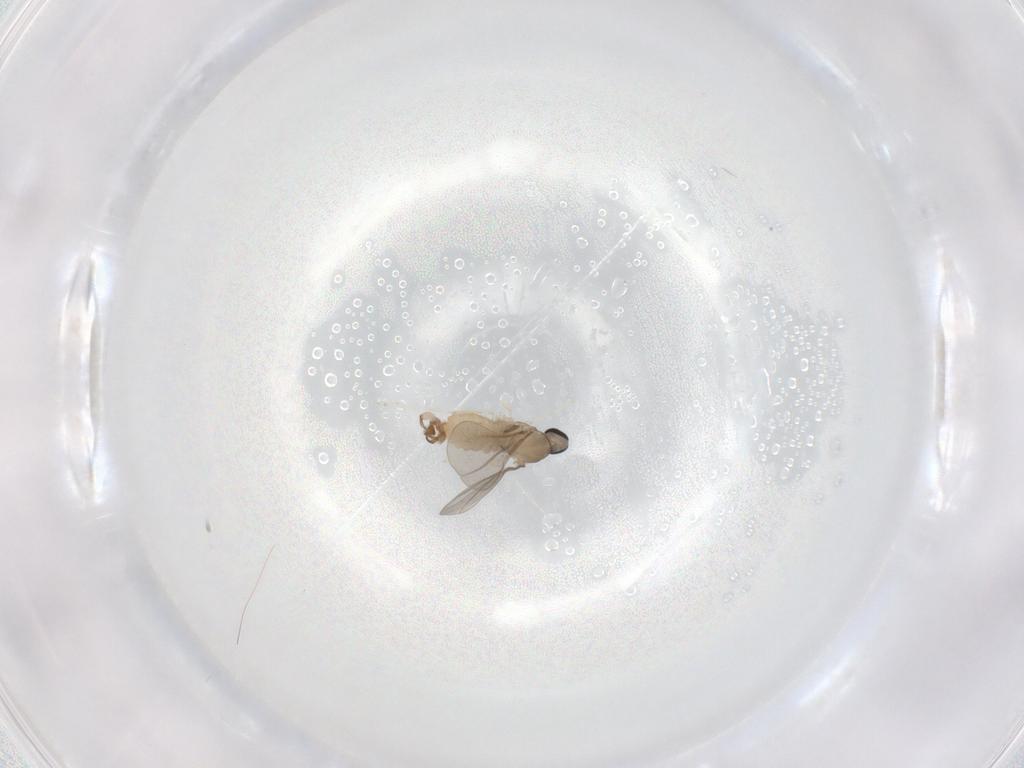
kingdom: Animalia
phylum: Arthropoda
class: Insecta
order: Diptera
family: Cecidomyiidae
